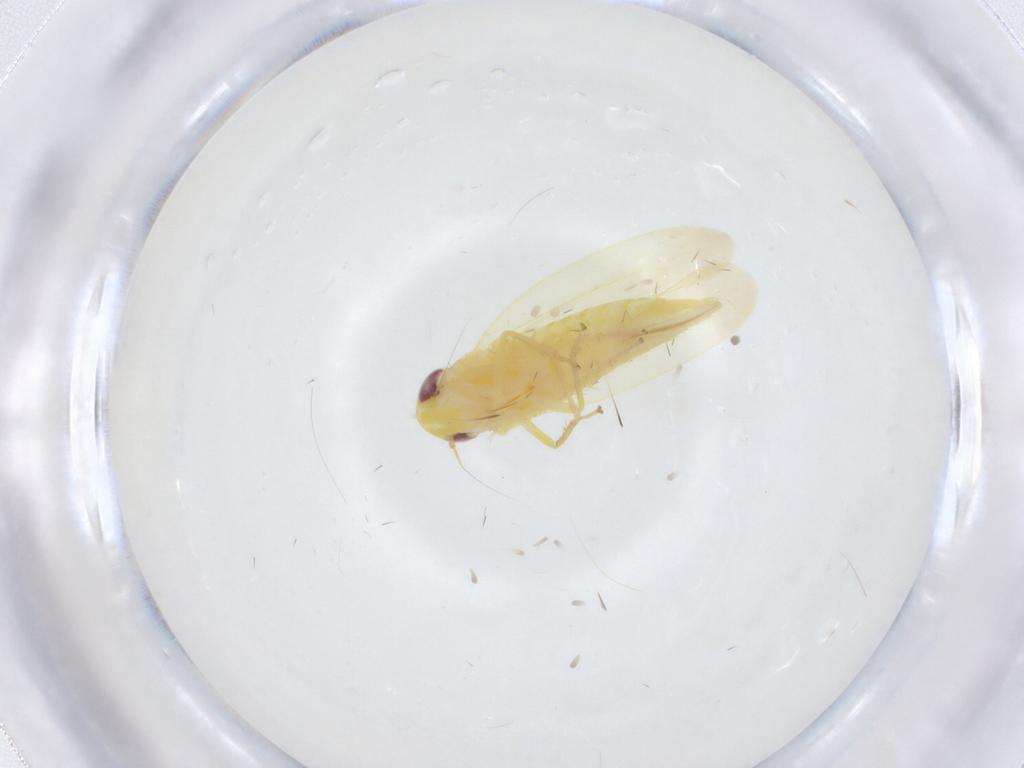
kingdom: Animalia
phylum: Arthropoda
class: Insecta
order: Hemiptera
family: Cicadellidae
